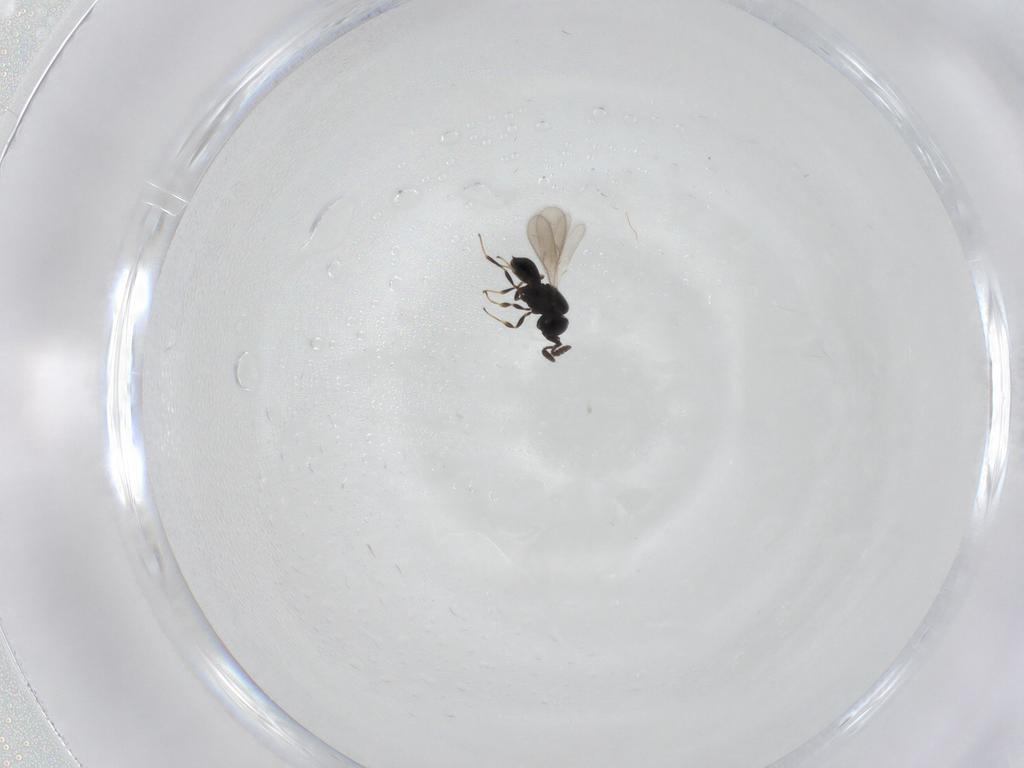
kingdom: Animalia
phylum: Arthropoda
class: Insecta
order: Hymenoptera
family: Scelionidae
